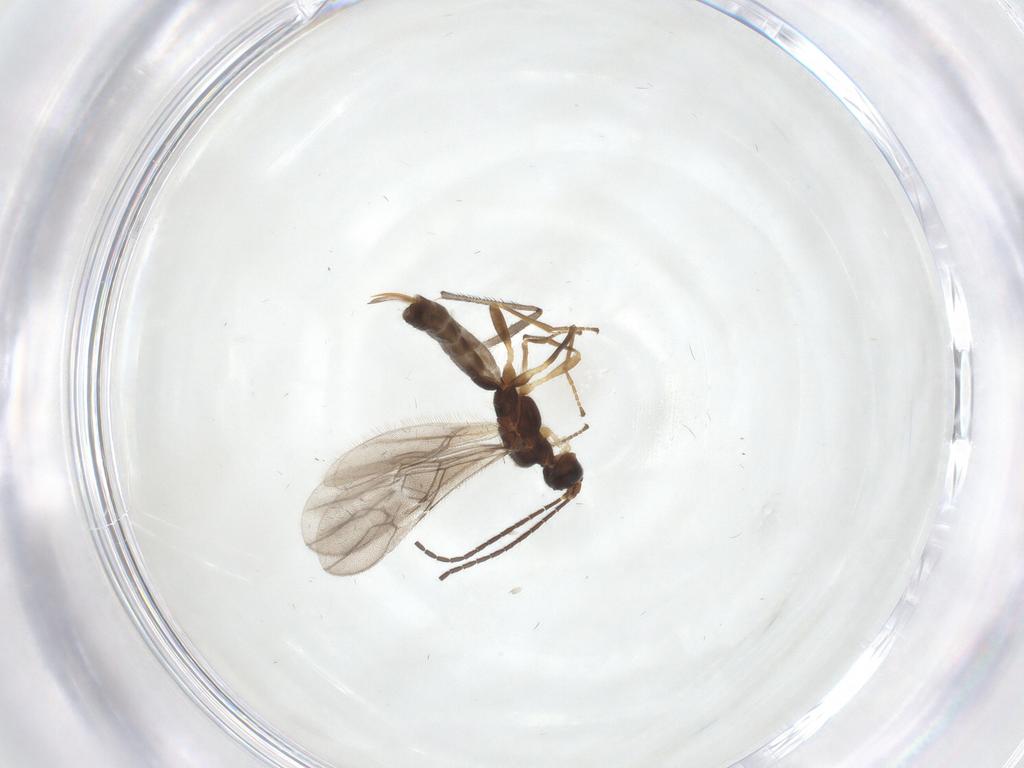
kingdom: Animalia
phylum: Arthropoda
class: Insecta
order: Hymenoptera
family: Braconidae
